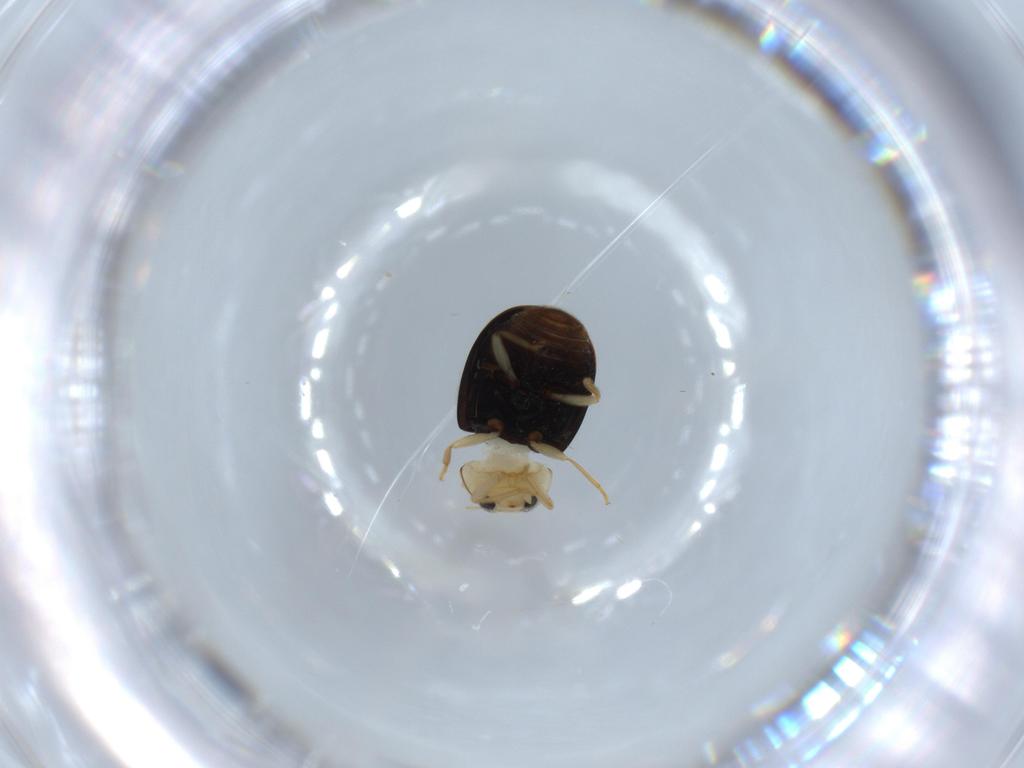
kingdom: Animalia
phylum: Arthropoda
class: Insecta
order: Coleoptera
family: Coccinellidae
